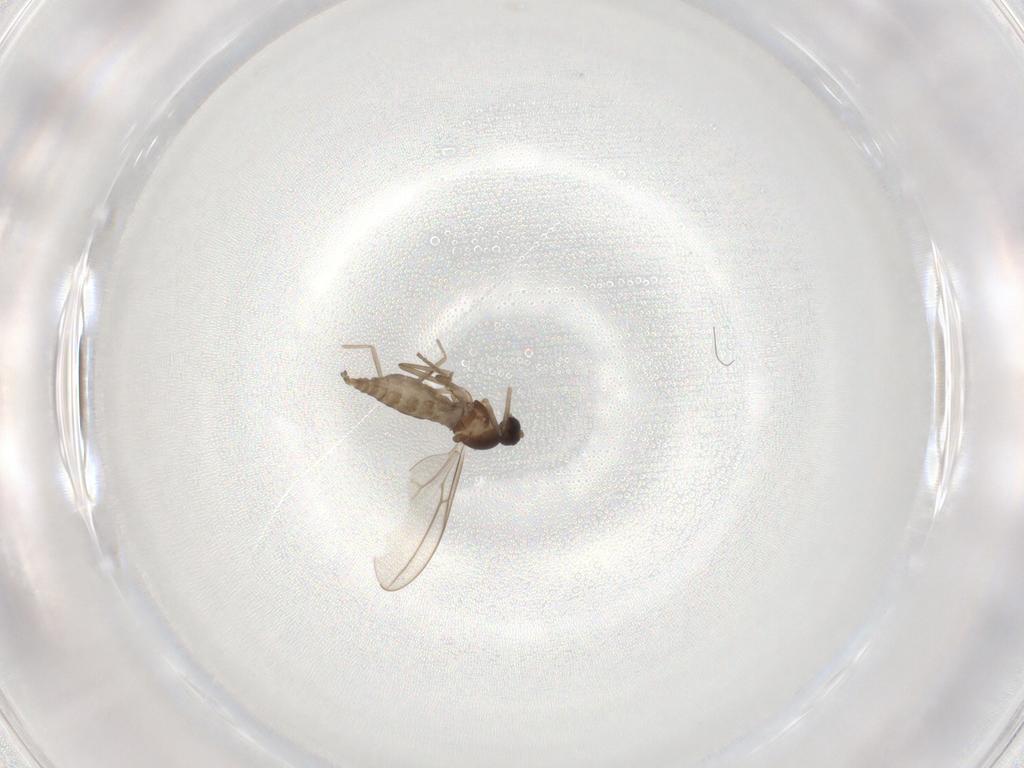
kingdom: Animalia
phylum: Arthropoda
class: Insecta
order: Diptera
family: Cecidomyiidae
